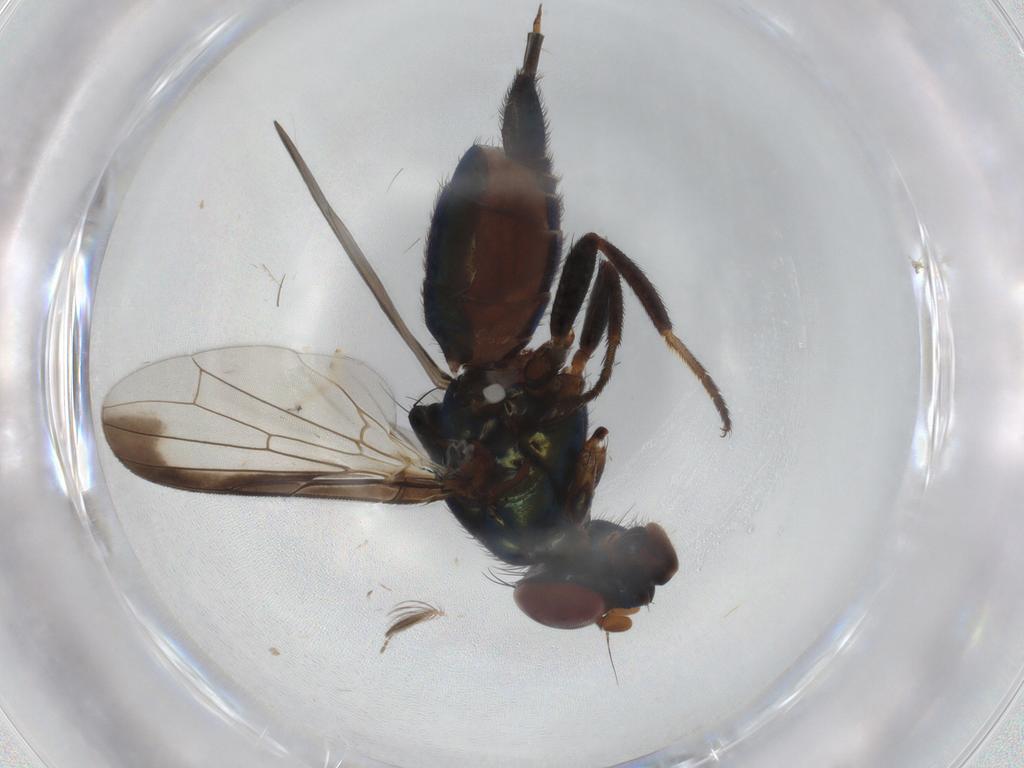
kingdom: Animalia
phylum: Arthropoda
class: Insecta
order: Diptera
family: Ceratopogonidae
